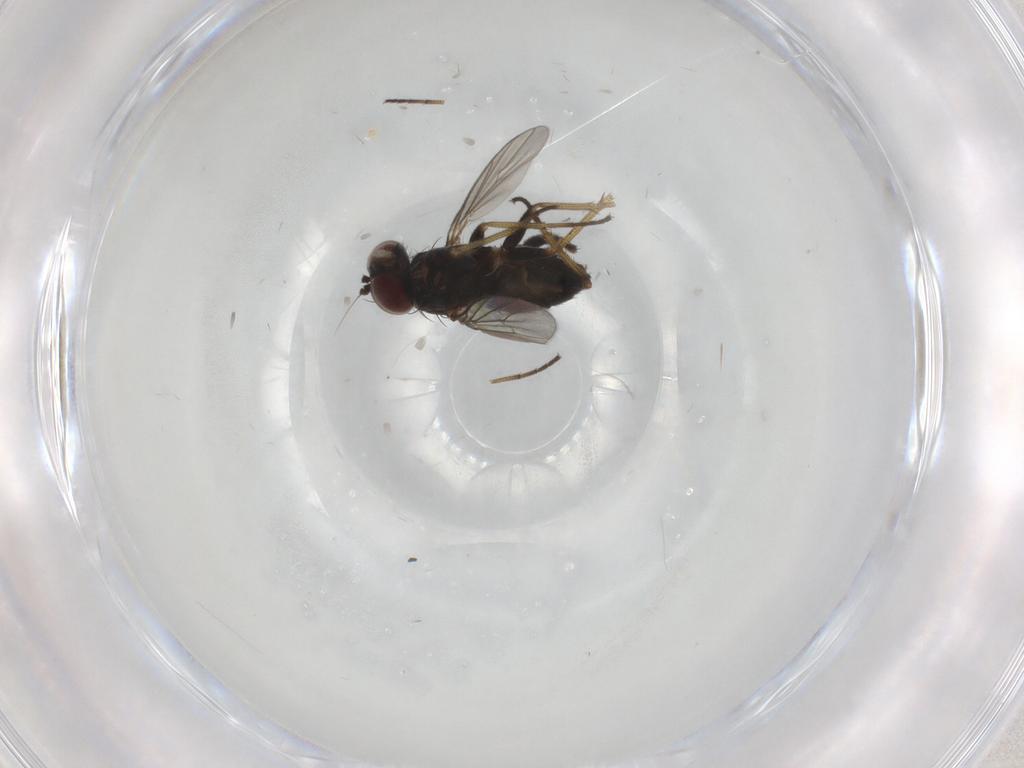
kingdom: Animalia
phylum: Arthropoda
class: Insecta
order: Diptera
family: Dolichopodidae
